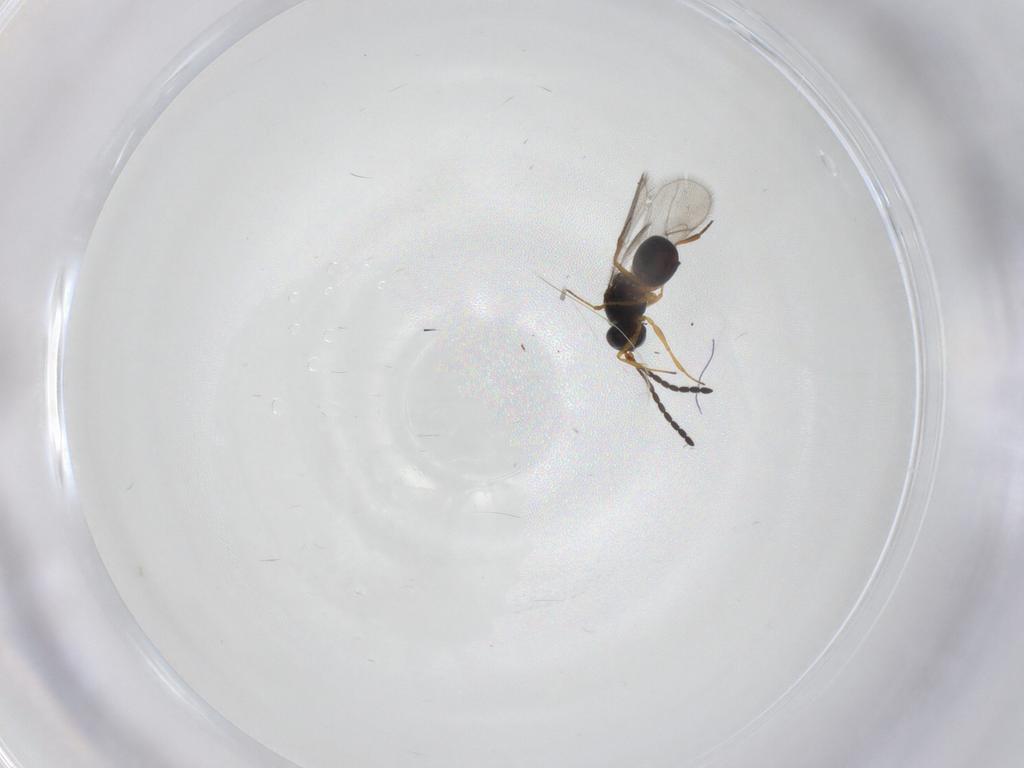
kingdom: Animalia
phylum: Arthropoda
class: Insecta
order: Hymenoptera
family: Figitidae
